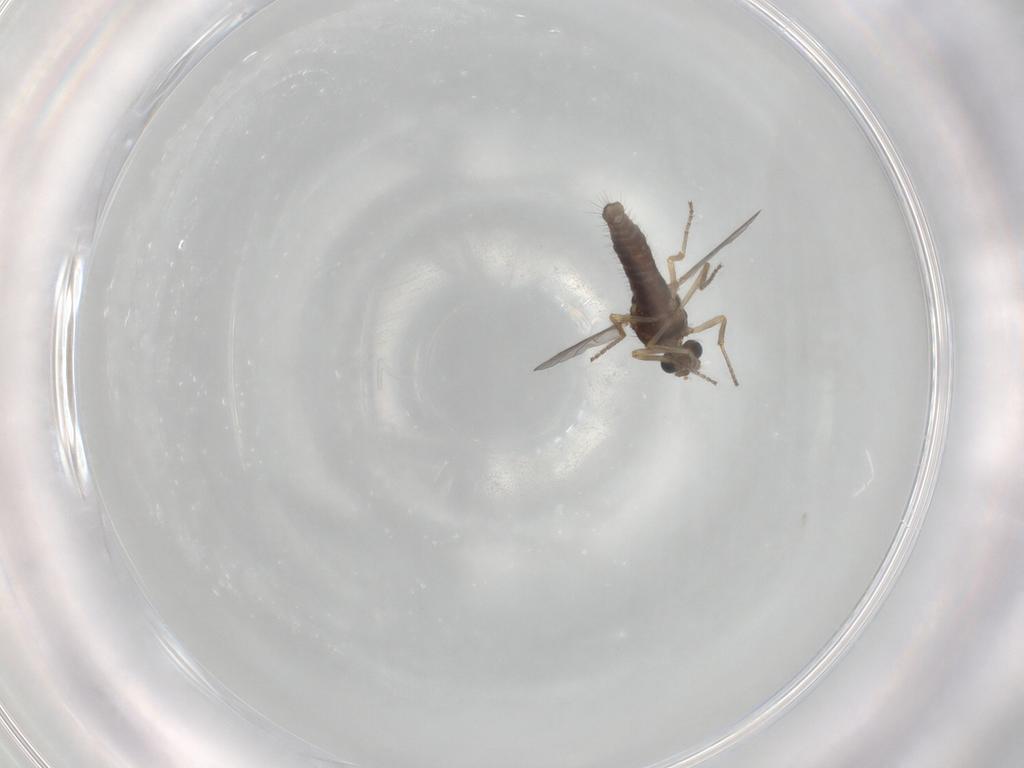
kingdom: Animalia
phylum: Arthropoda
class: Insecta
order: Diptera
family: Ceratopogonidae
